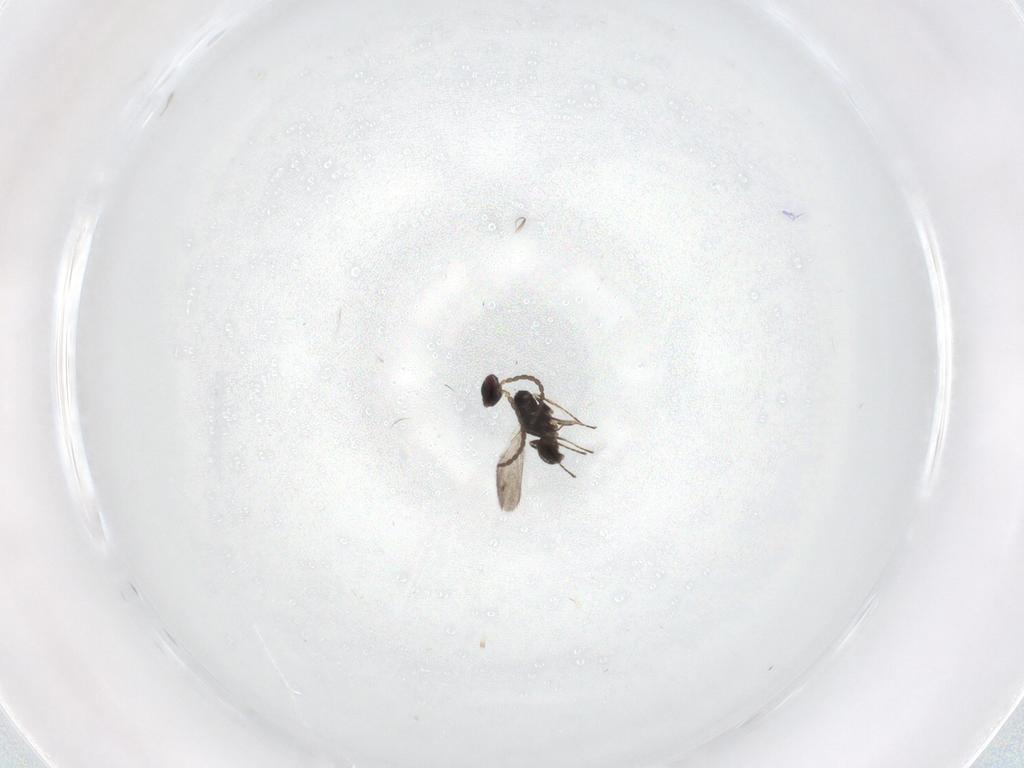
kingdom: Animalia
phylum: Arthropoda
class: Insecta
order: Hymenoptera
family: Mymaridae
